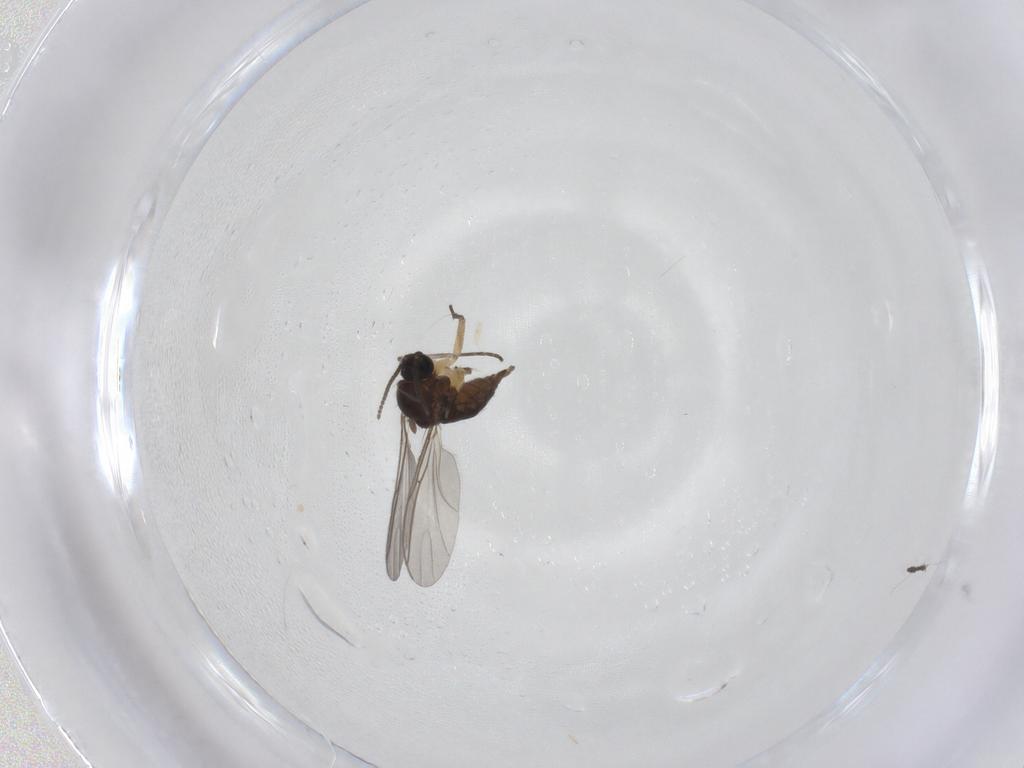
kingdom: Animalia
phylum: Arthropoda
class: Insecta
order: Diptera
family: Sciaridae
